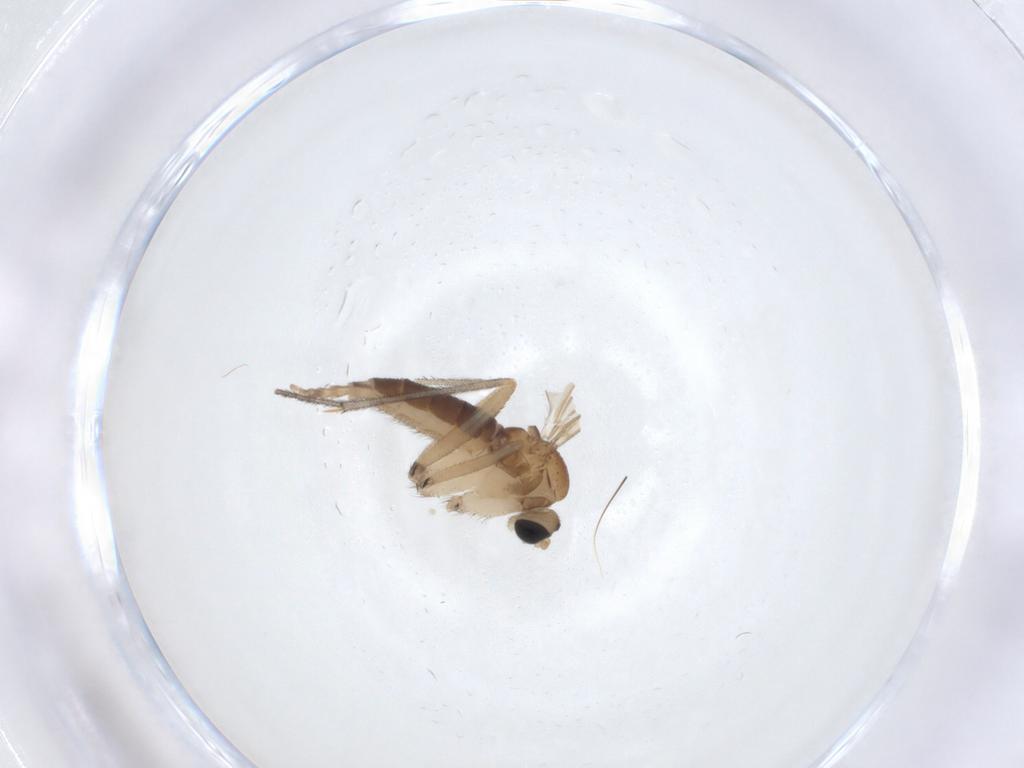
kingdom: Animalia
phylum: Arthropoda
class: Insecta
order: Diptera
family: Sciaridae
